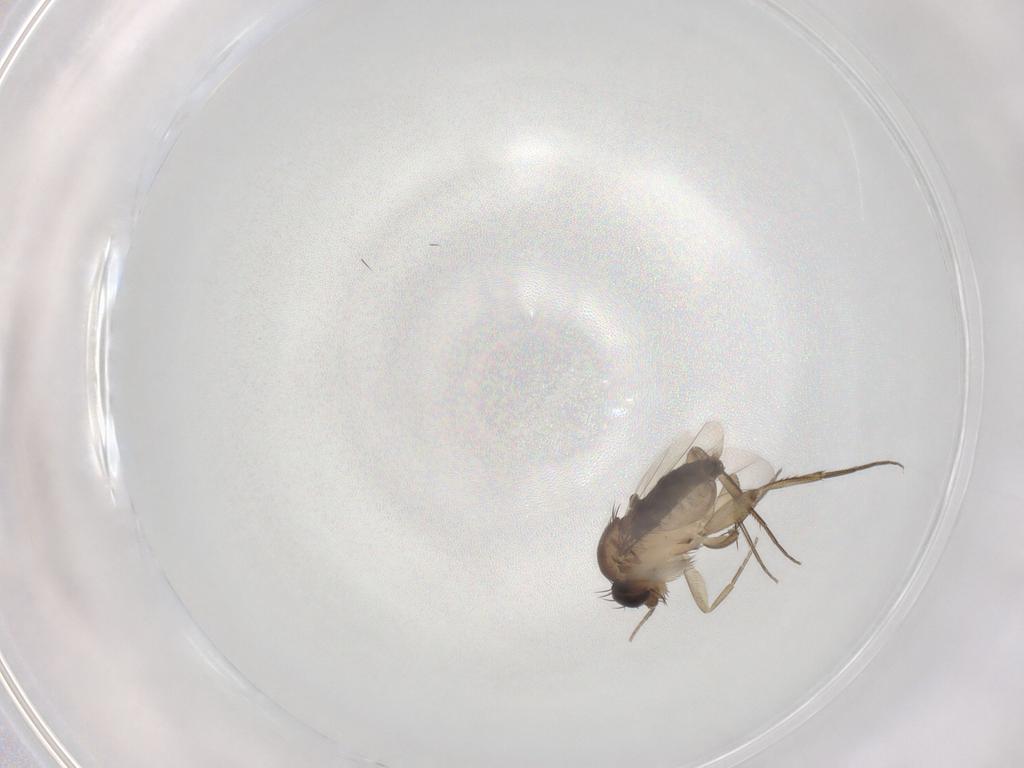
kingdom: Animalia
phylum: Arthropoda
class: Insecta
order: Diptera
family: Phoridae
